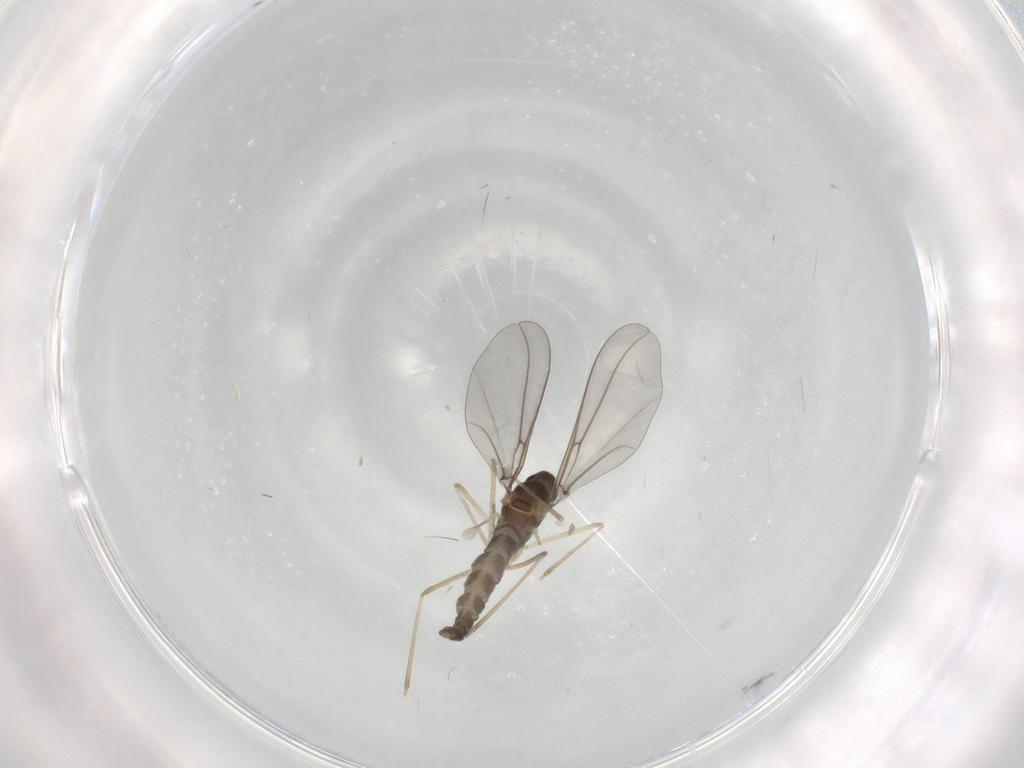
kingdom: Animalia
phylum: Arthropoda
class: Insecta
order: Diptera
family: Cecidomyiidae
